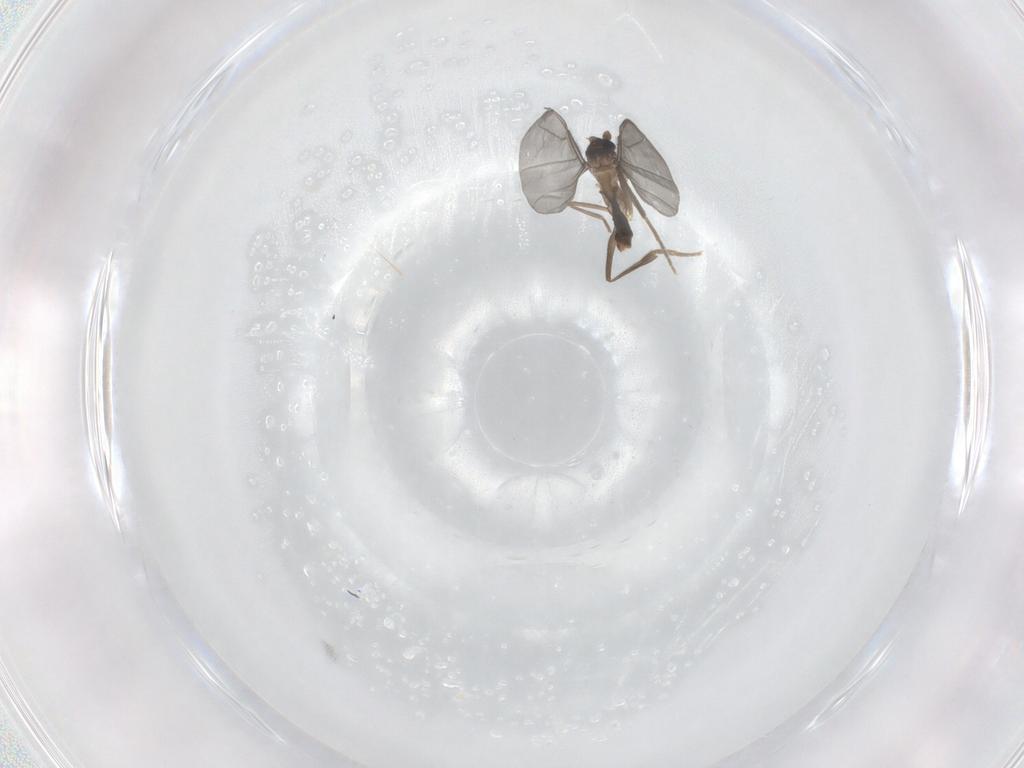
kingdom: Animalia
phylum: Arthropoda
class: Insecta
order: Diptera
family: Phoridae
